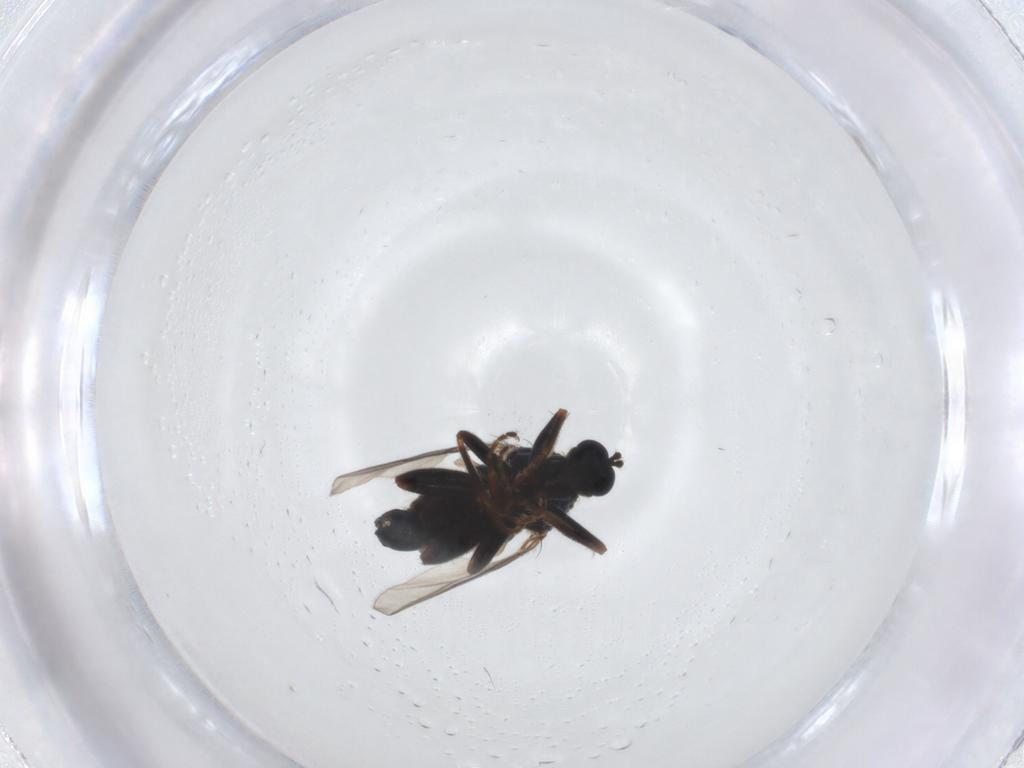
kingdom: Animalia
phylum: Arthropoda
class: Insecta
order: Diptera
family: Hybotidae
